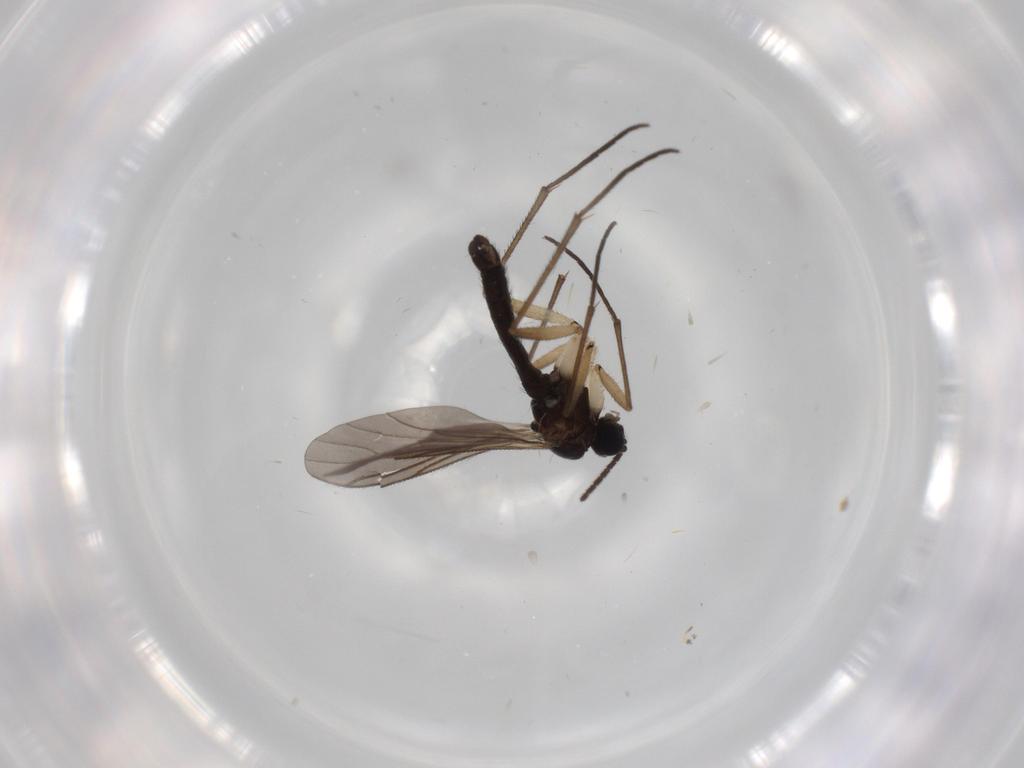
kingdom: Animalia
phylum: Arthropoda
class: Insecta
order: Diptera
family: Sciaridae
